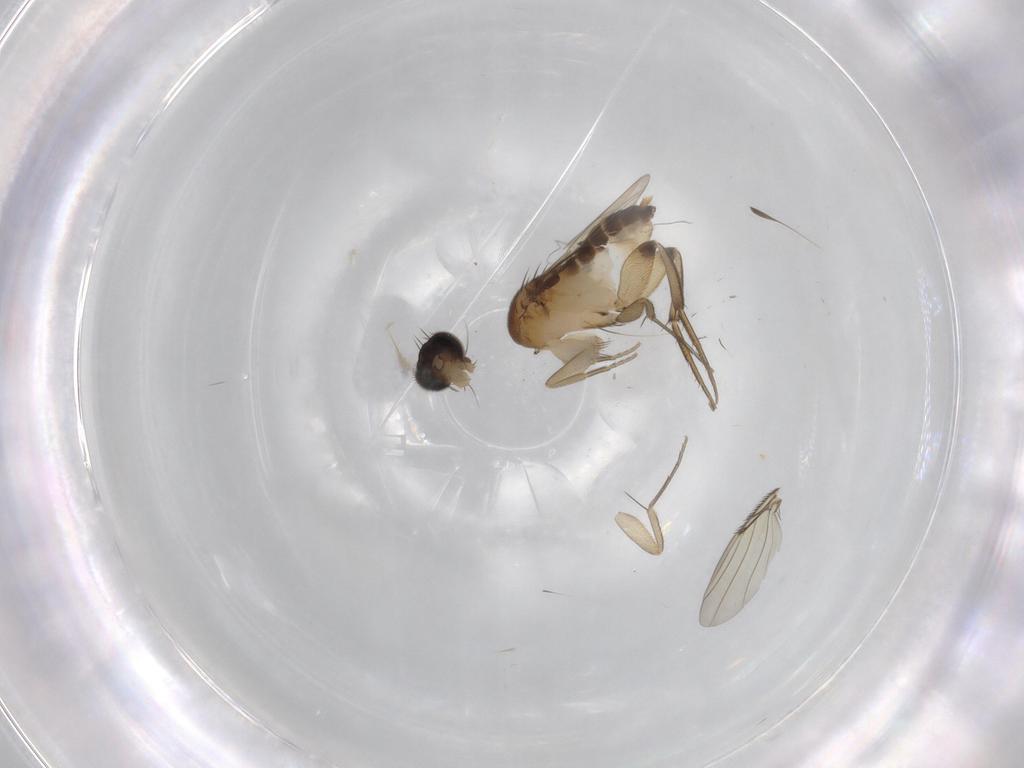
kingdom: Animalia
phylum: Arthropoda
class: Insecta
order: Diptera
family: Phoridae
